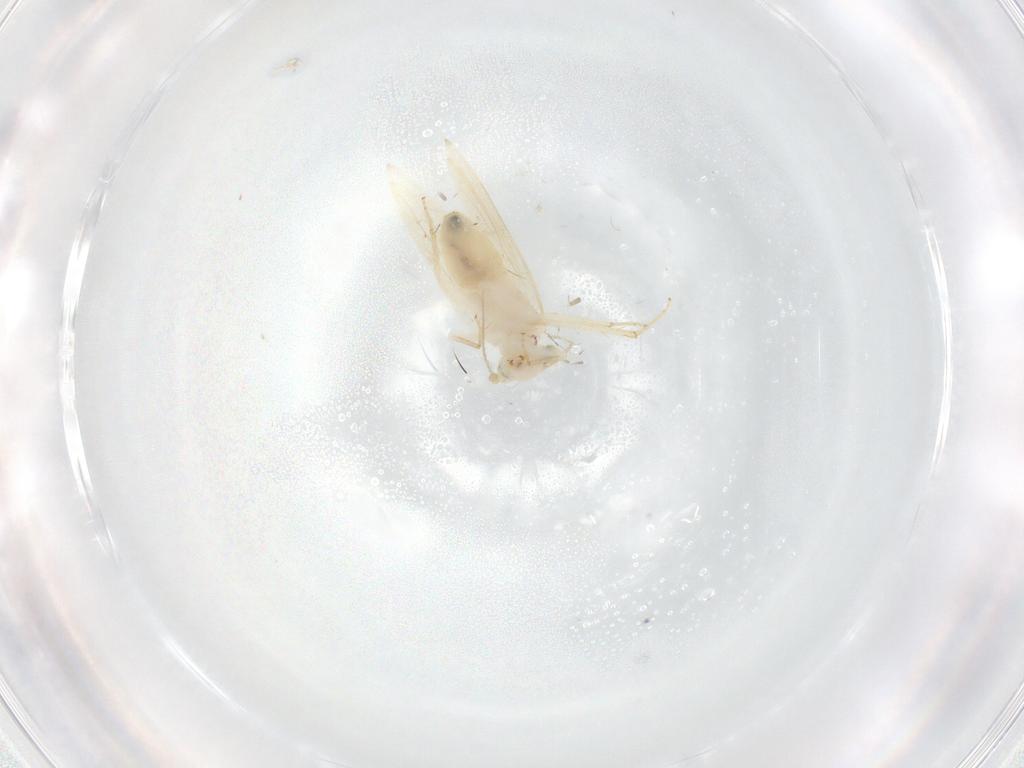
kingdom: Animalia
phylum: Arthropoda
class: Insecta
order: Psocodea
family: Lepidopsocidae
